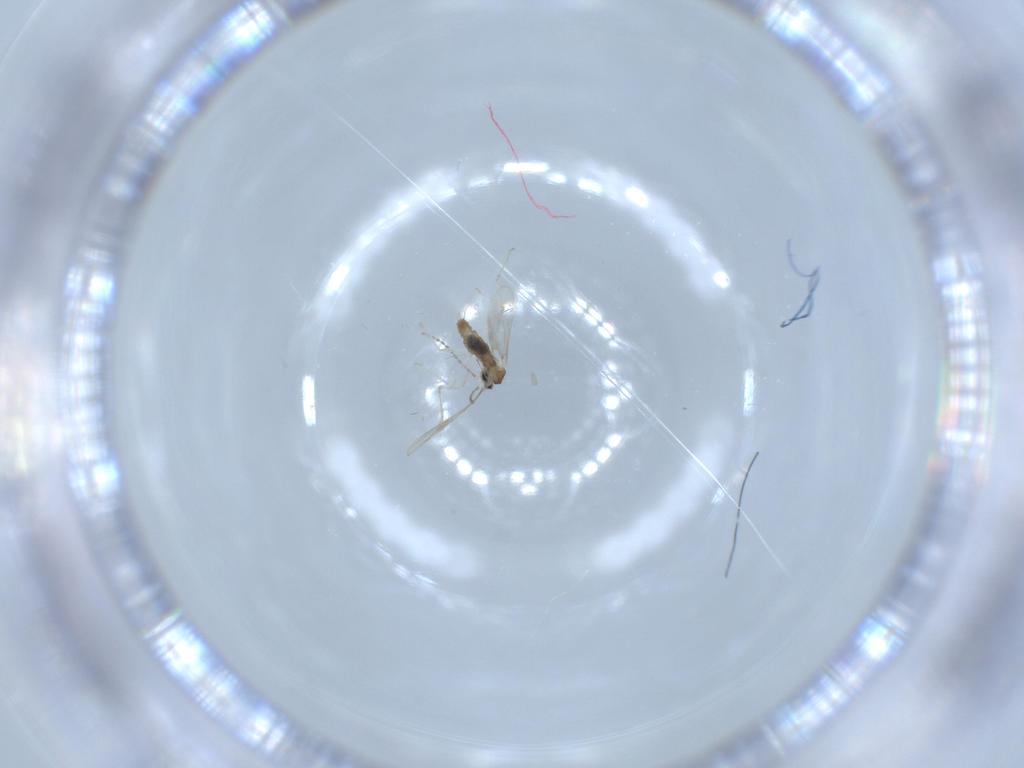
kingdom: Animalia
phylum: Arthropoda
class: Insecta
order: Diptera
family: Cecidomyiidae
